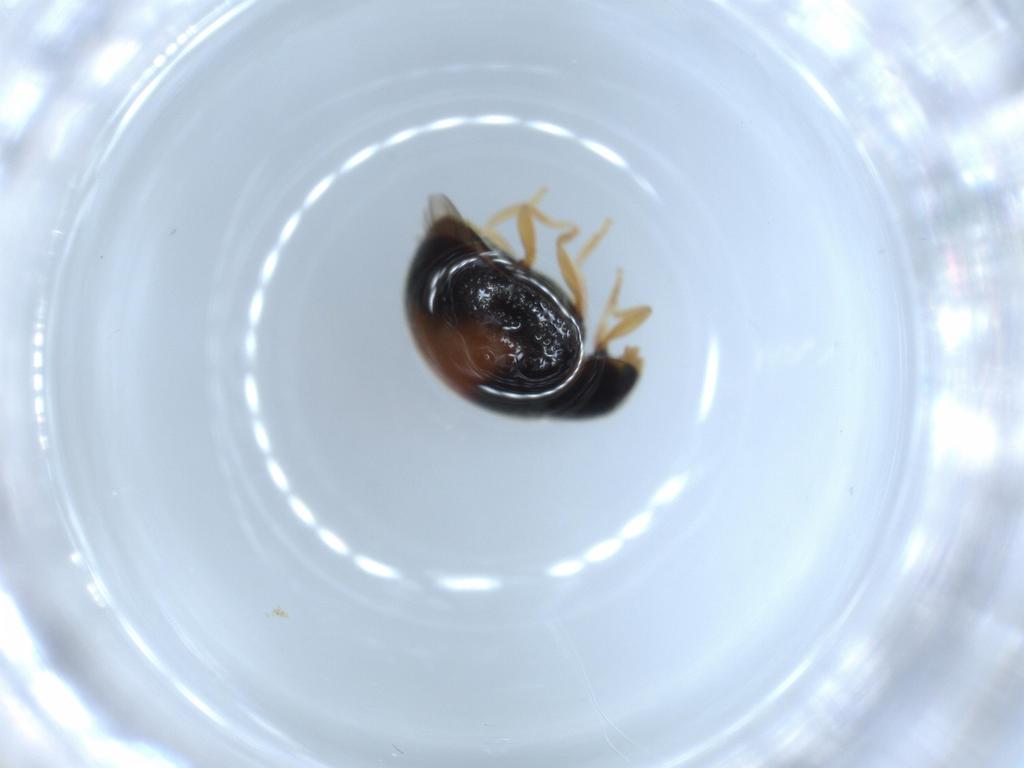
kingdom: Animalia
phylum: Arthropoda
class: Insecta
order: Coleoptera
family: Coccinellidae
